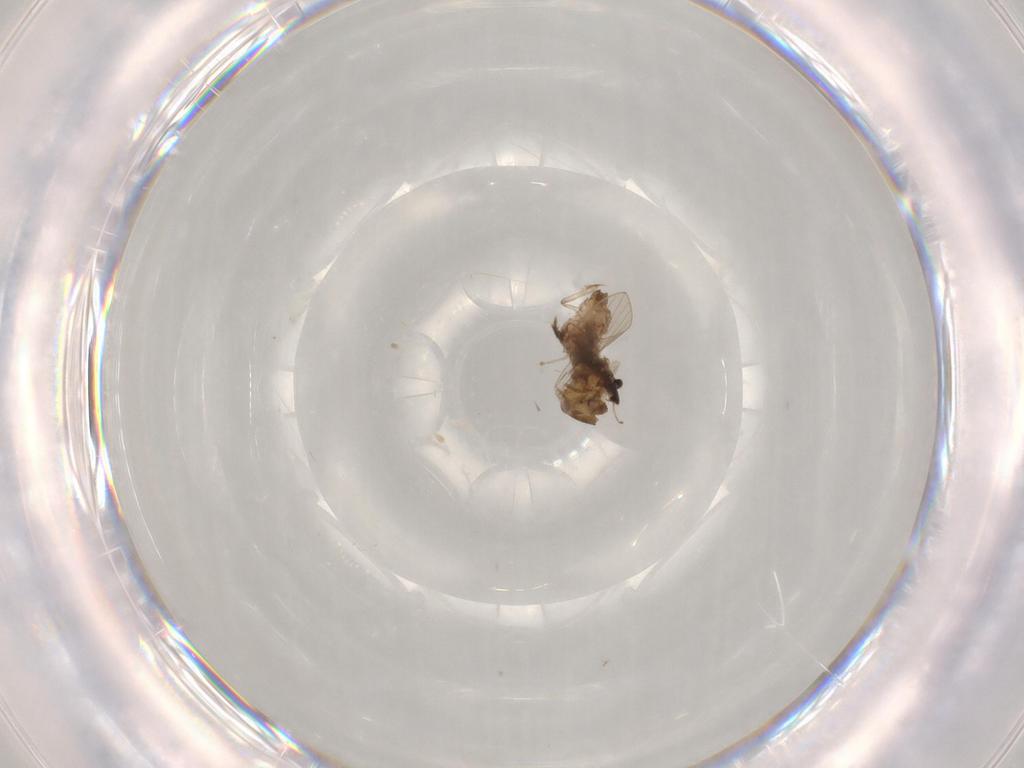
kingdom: Animalia
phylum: Arthropoda
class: Insecta
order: Diptera
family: Psychodidae
